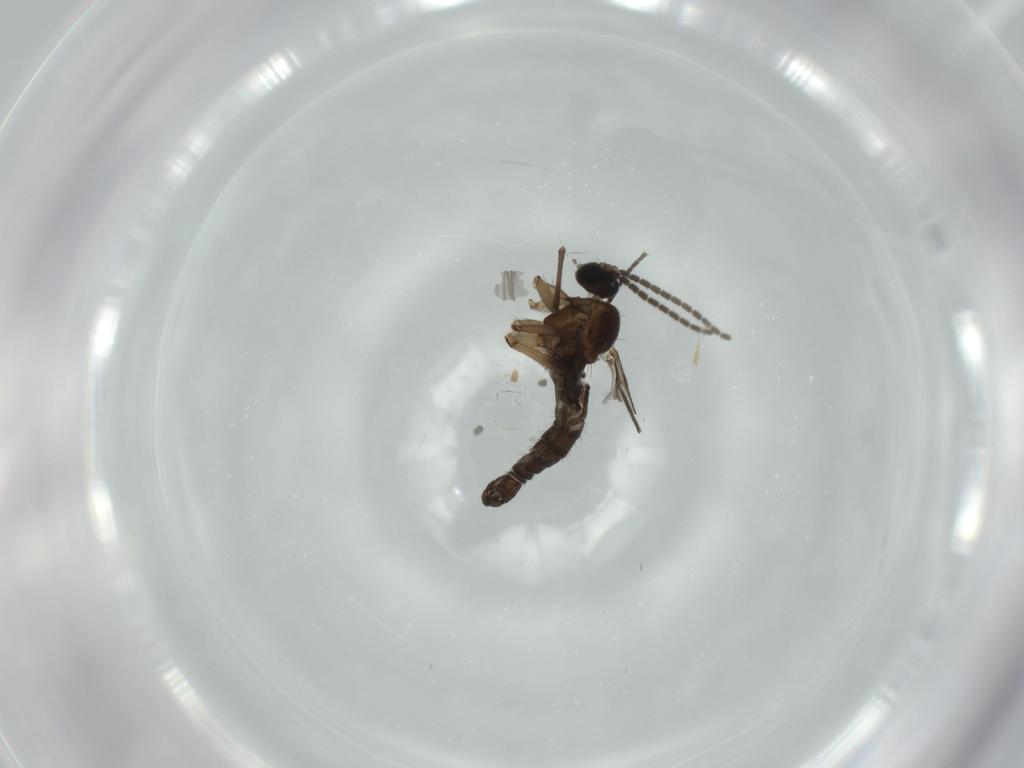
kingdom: Animalia
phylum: Arthropoda
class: Insecta
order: Diptera
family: Sciaridae
